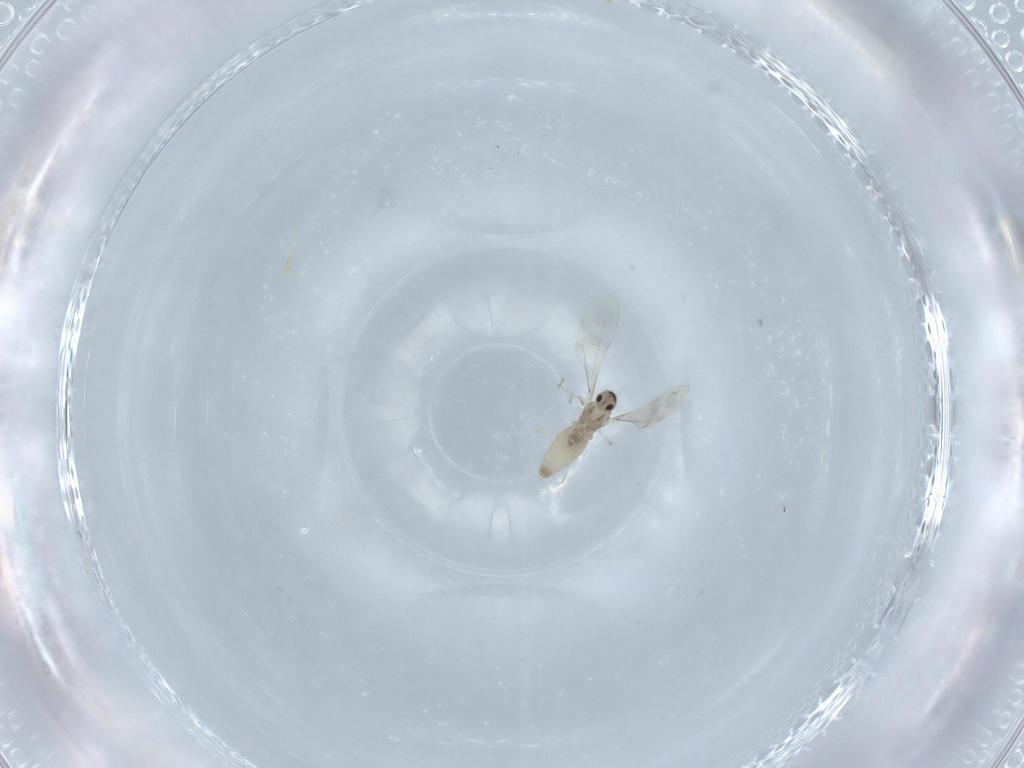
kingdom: Animalia
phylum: Arthropoda
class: Insecta
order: Diptera
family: Cecidomyiidae
